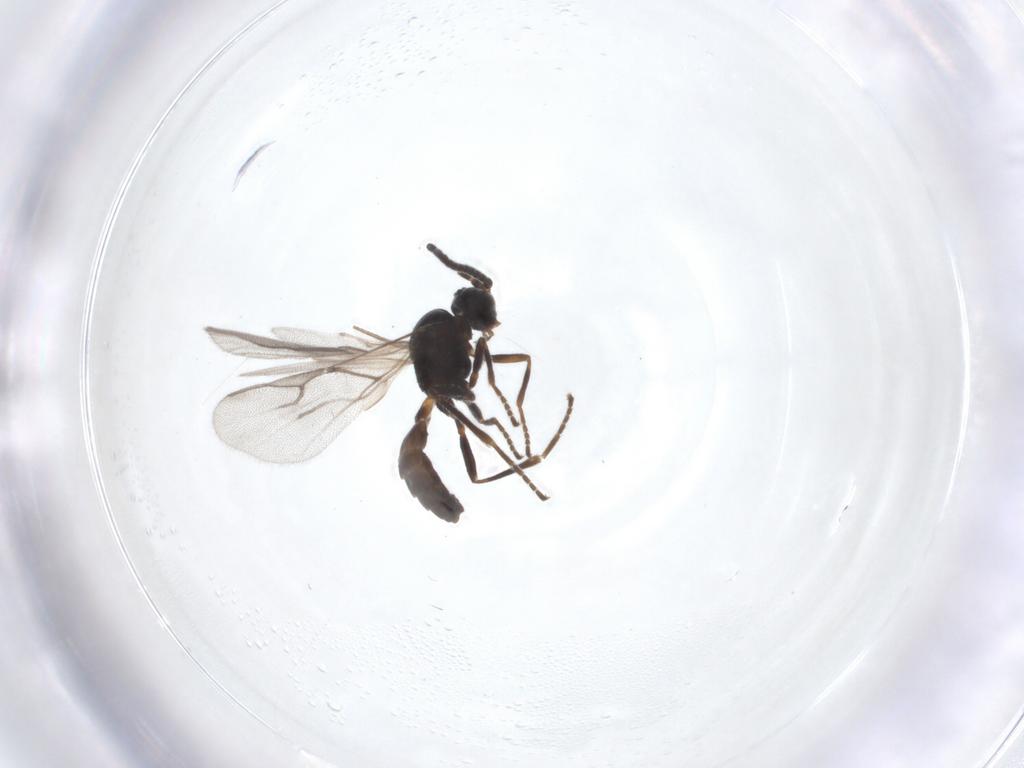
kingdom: Animalia
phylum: Arthropoda
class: Insecta
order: Hymenoptera
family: Braconidae
